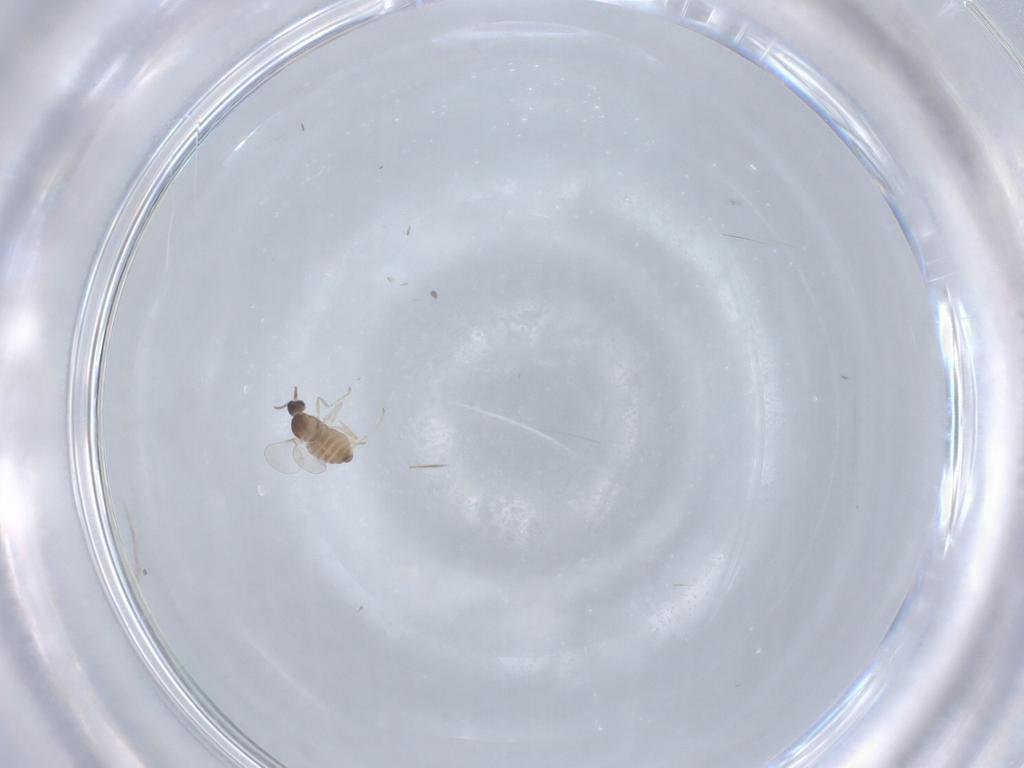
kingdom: Animalia
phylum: Arthropoda
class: Insecta
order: Diptera
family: Cecidomyiidae
